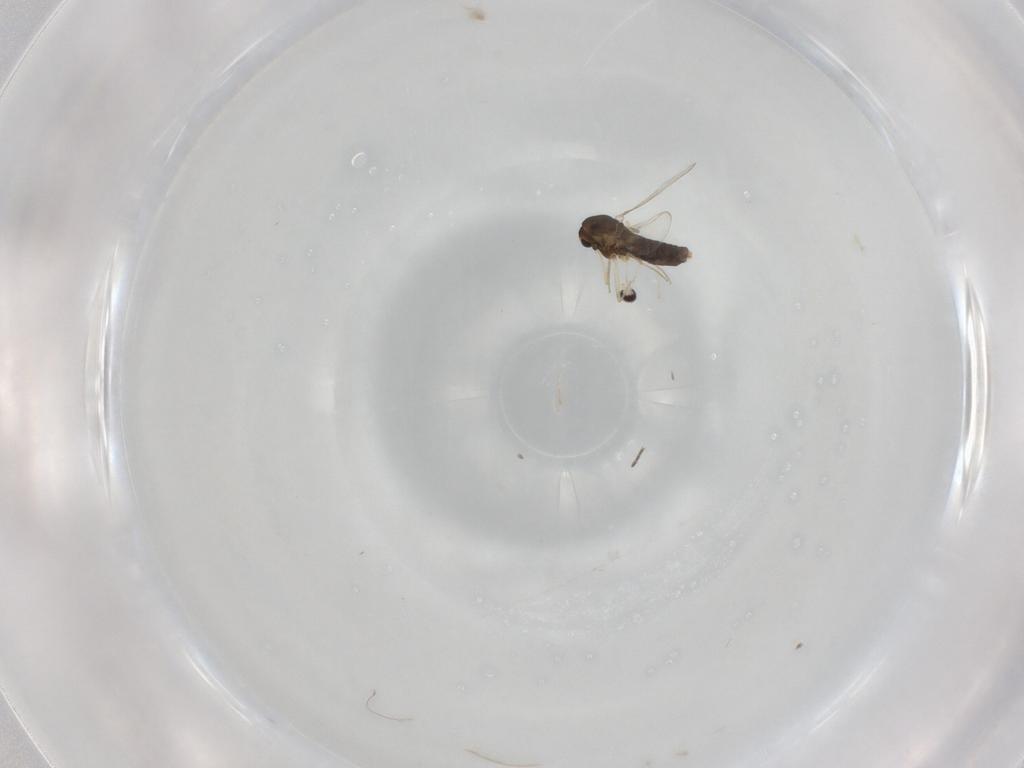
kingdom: Animalia
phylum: Arthropoda
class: Insecta
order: Diptera
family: Chironomidae
